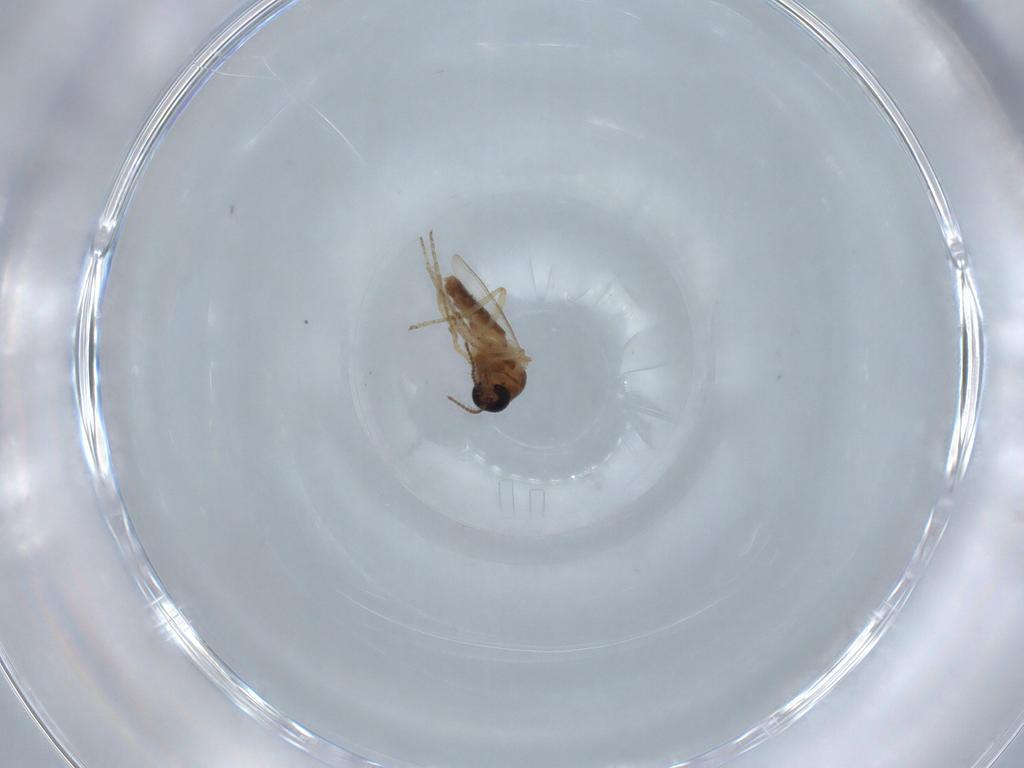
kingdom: Animalia
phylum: Arthropoda
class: Insecta
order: Diptera
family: Ceratopogonidae
